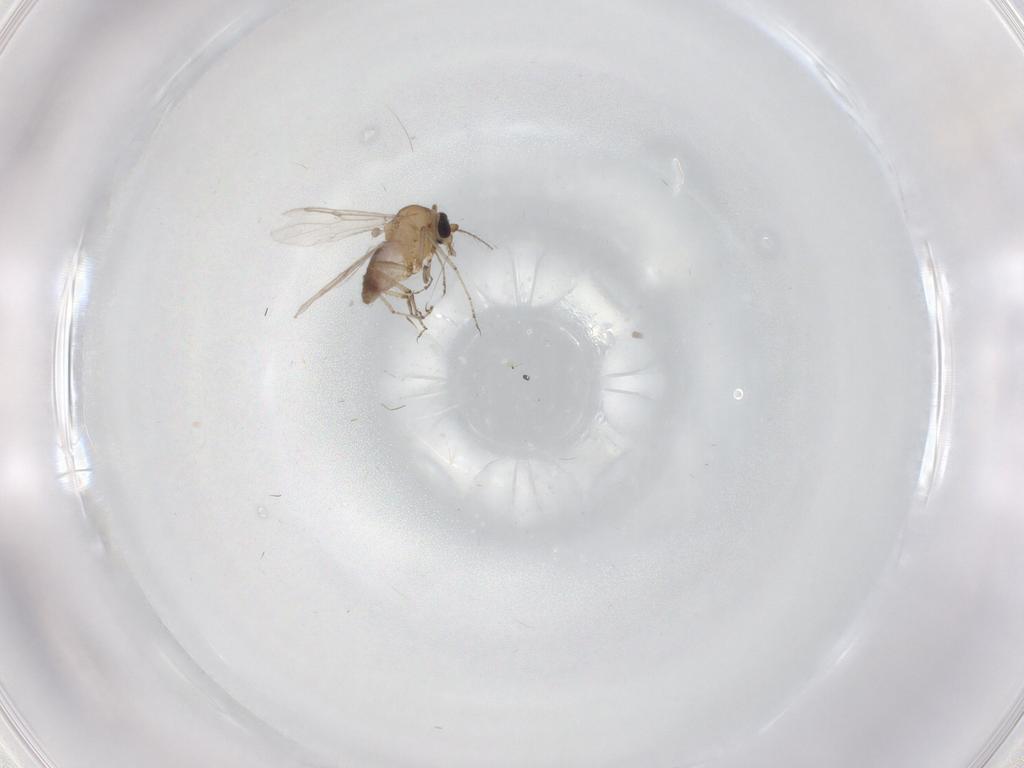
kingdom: Animalia
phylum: Arthropoda
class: Insecta
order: Diptera
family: Ceratopogonidae
